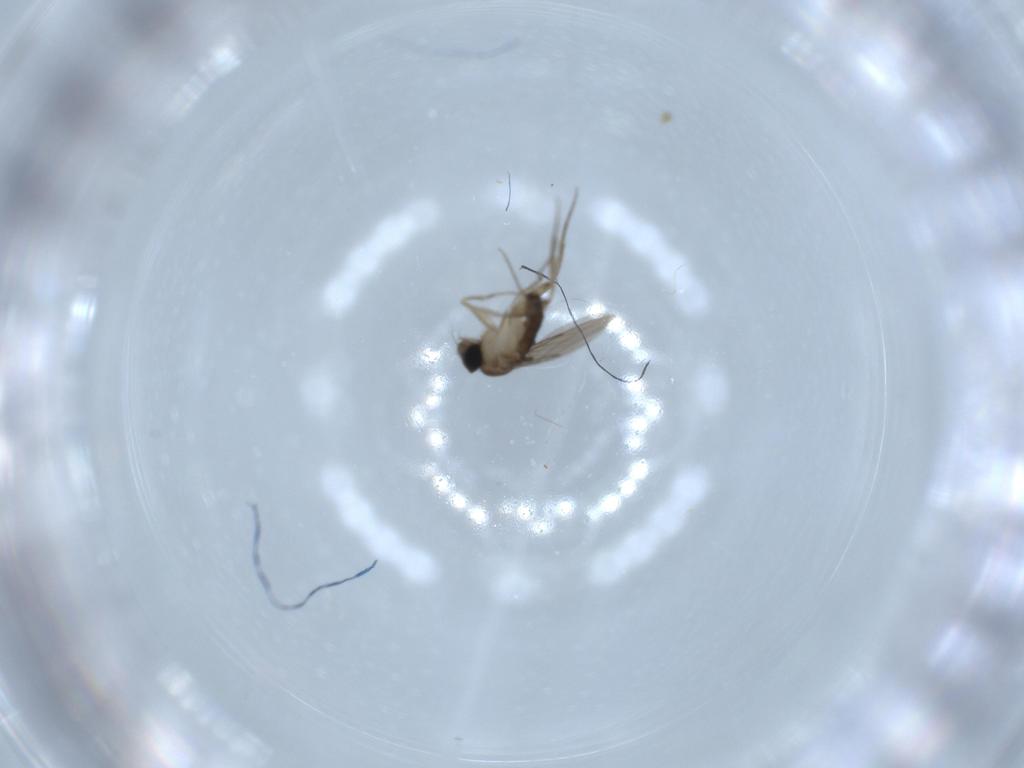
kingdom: Animalia
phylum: Arthropoda
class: Insecta
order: Diptera
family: Phoridae
